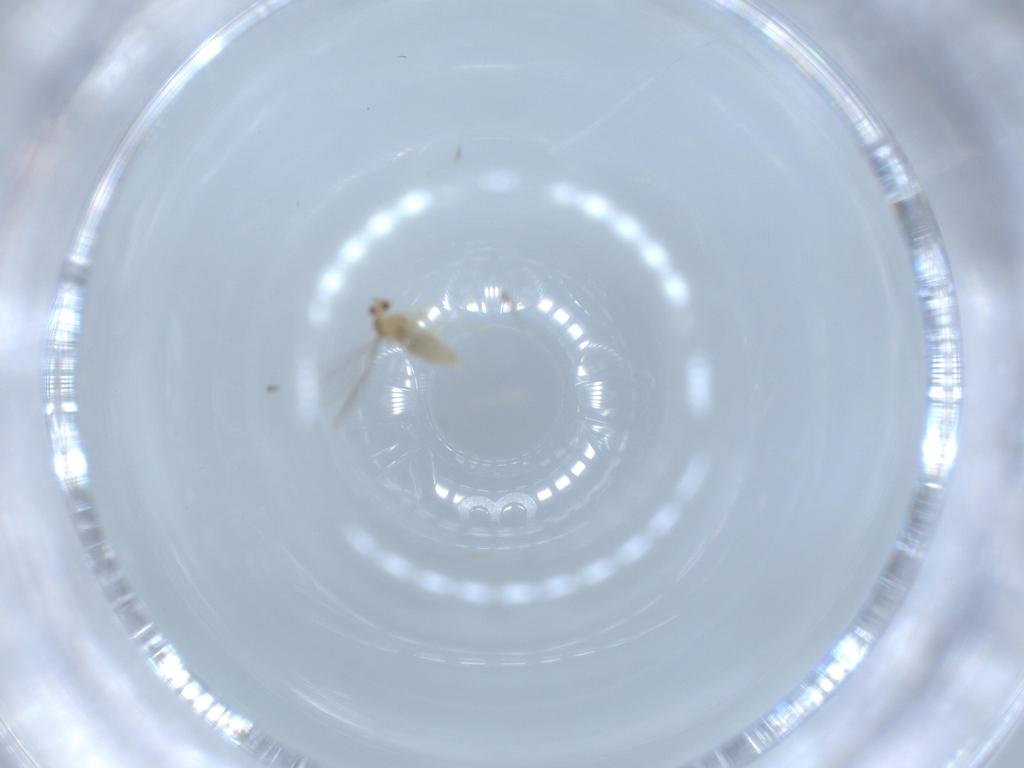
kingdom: Animalia
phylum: Arthropoda
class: Insecta
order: Diptera
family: Cecidomyiidae
